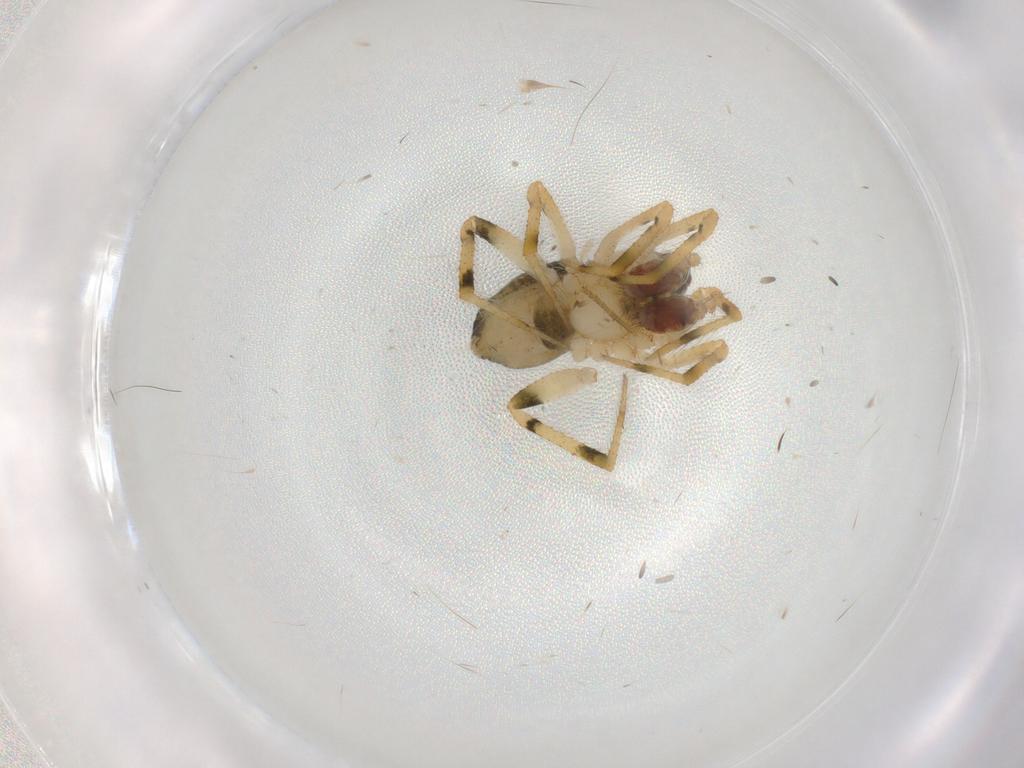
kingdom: Animalia
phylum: Arthropoda
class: Arachnida
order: Araneae
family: Theridiidae
